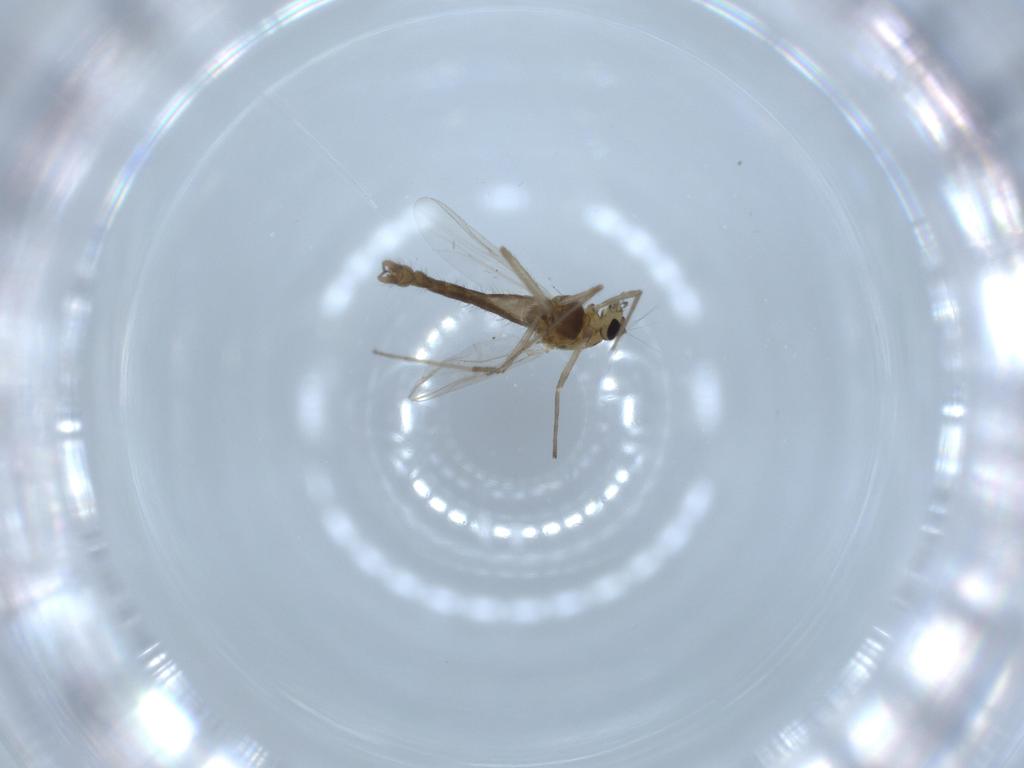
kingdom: Animalia
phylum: Arthropoda
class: Insecta
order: Diptera
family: Chironomidae
